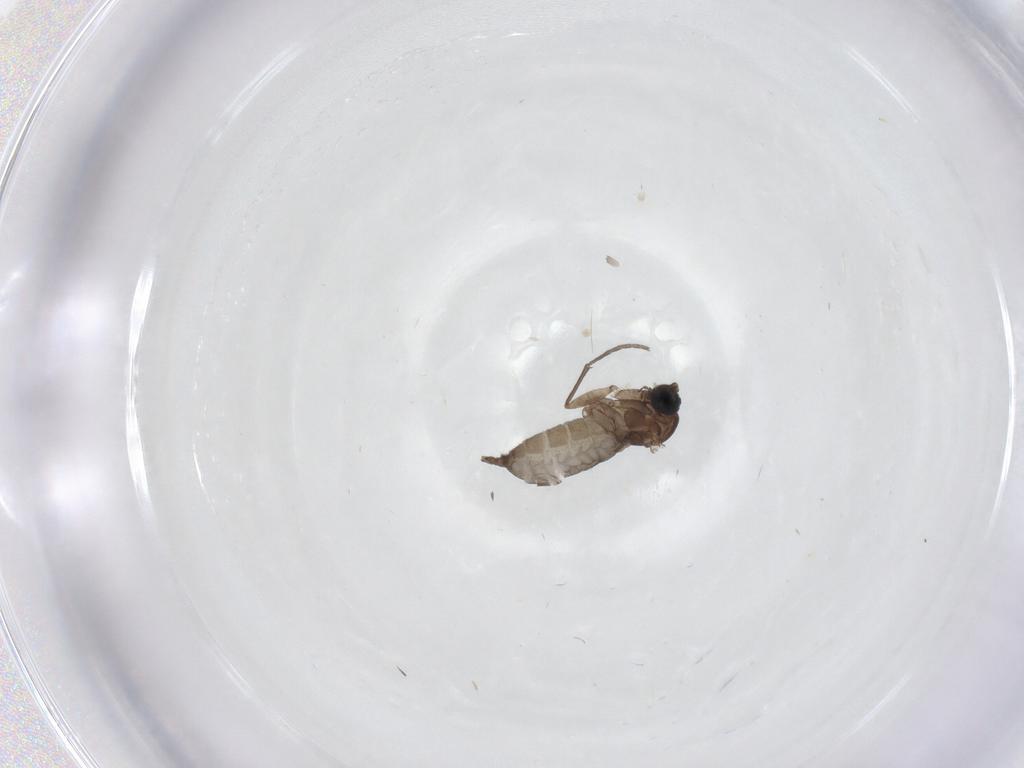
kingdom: Animalia
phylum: Arthropoda
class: Insecta
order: Diptera
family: Sciaridae
